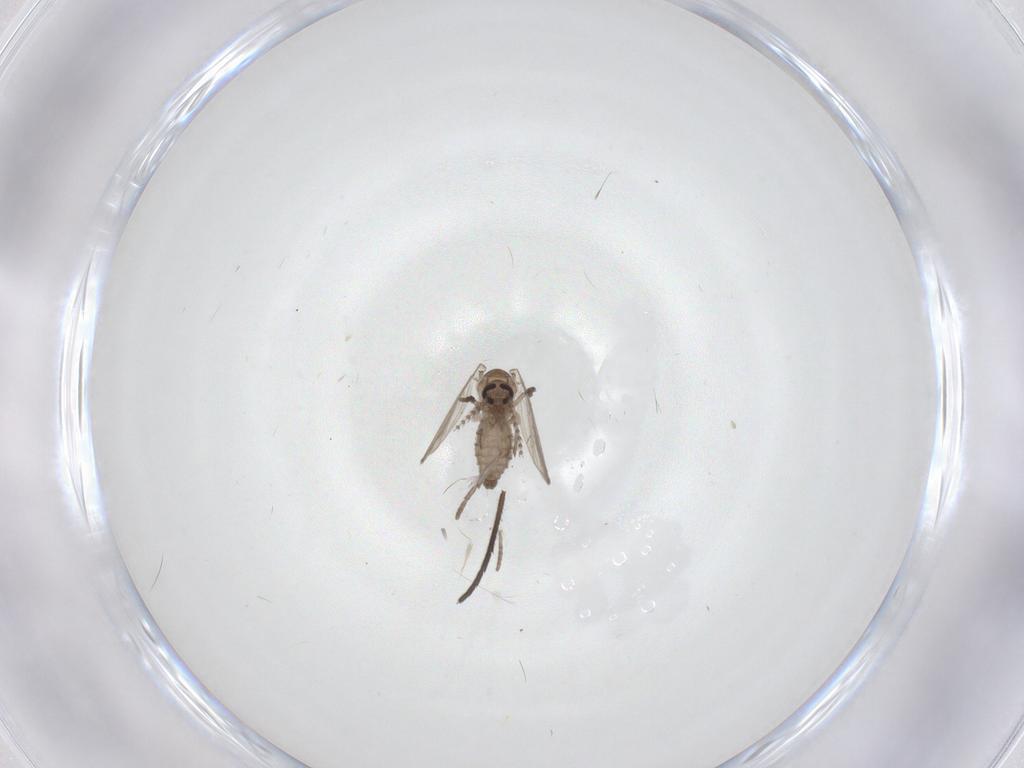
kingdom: Animalia
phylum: Arthropoda
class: Insecta
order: Diptera
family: Psychodidae
